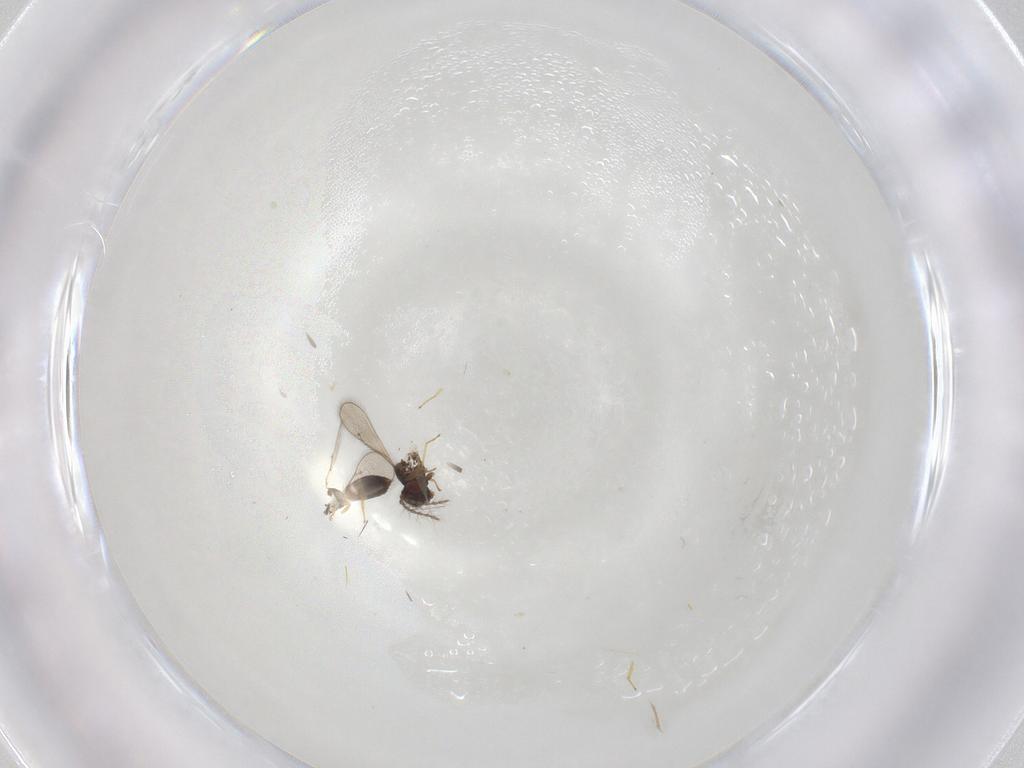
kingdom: Animalia
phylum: Arthropoda
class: Insecta
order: Hymenoptera
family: Eulophidae
